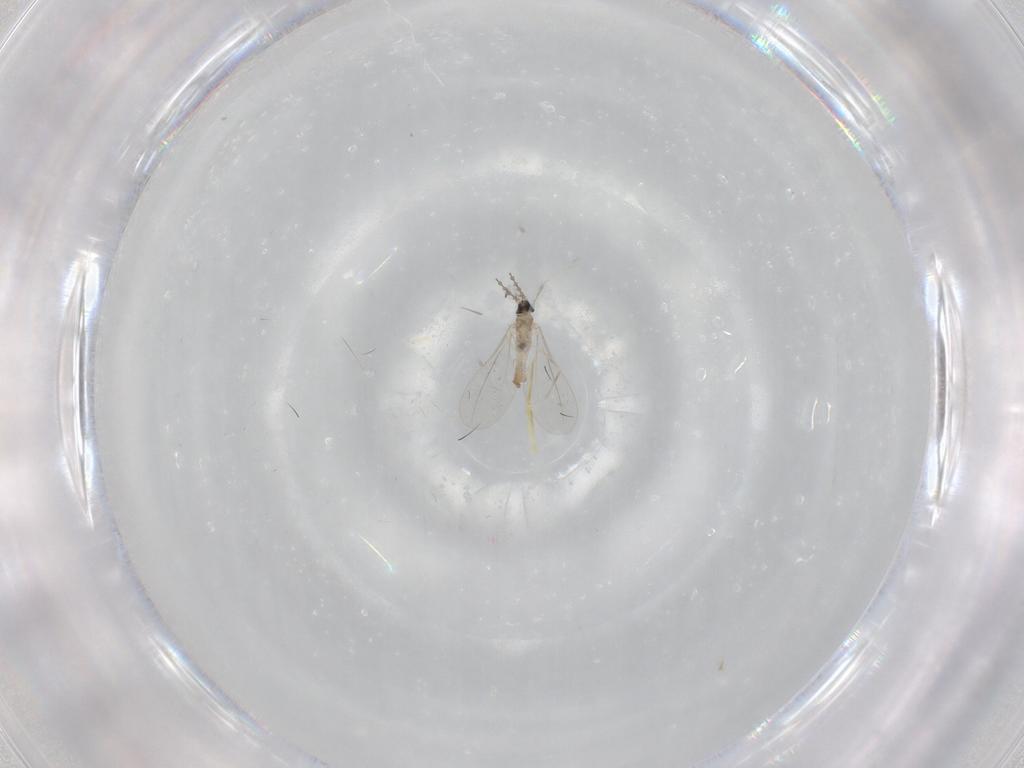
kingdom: Animalia
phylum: Arthropoda
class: Insecta
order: Diptera
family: Cecidomyiidae
